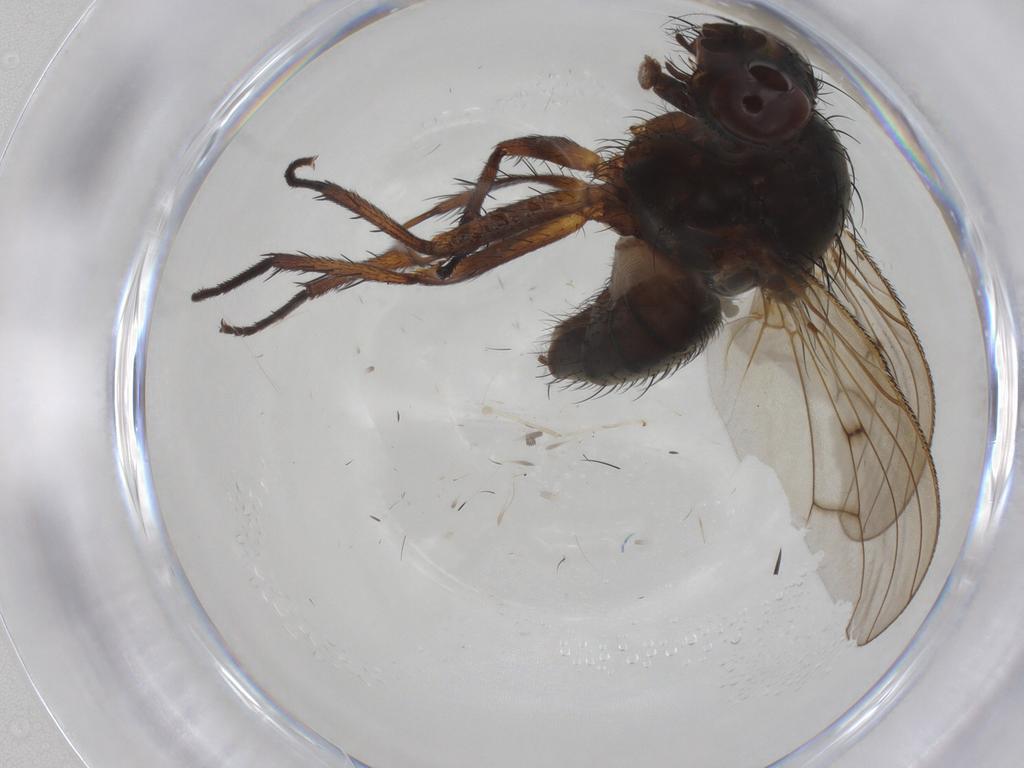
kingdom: Animalia
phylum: Arthropoda
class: Insecta
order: Diptera
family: Anthomyiidae
